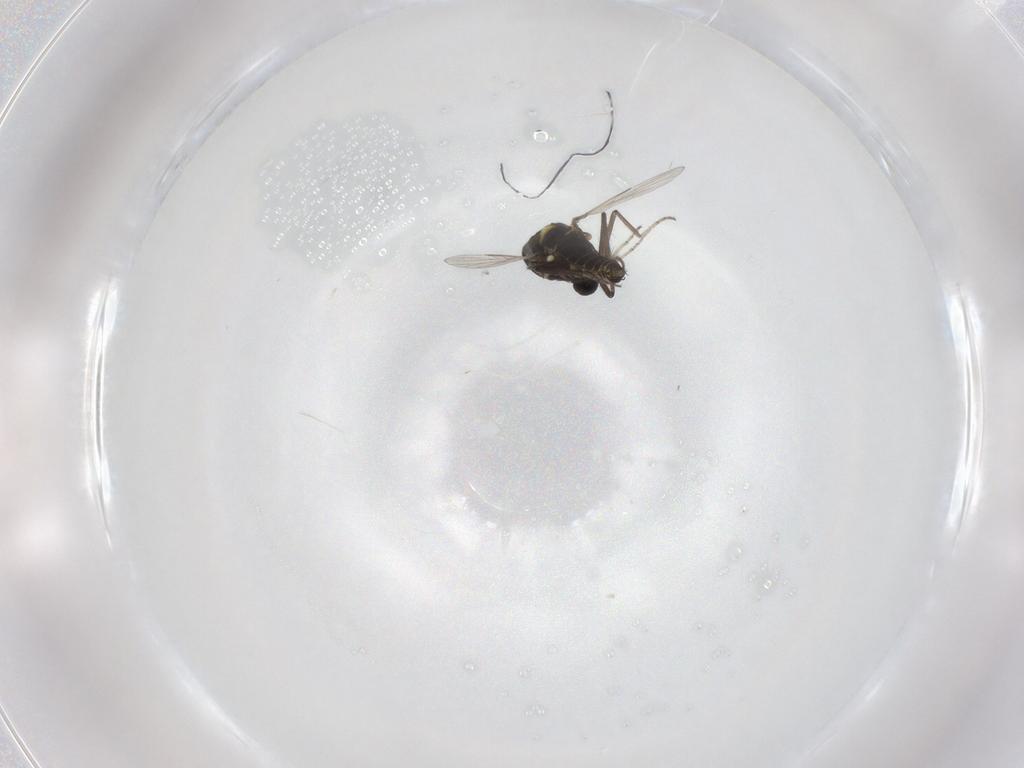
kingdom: Animalia
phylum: Arthropoda
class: Insecta
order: Diptera
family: Ceratopogonidae
